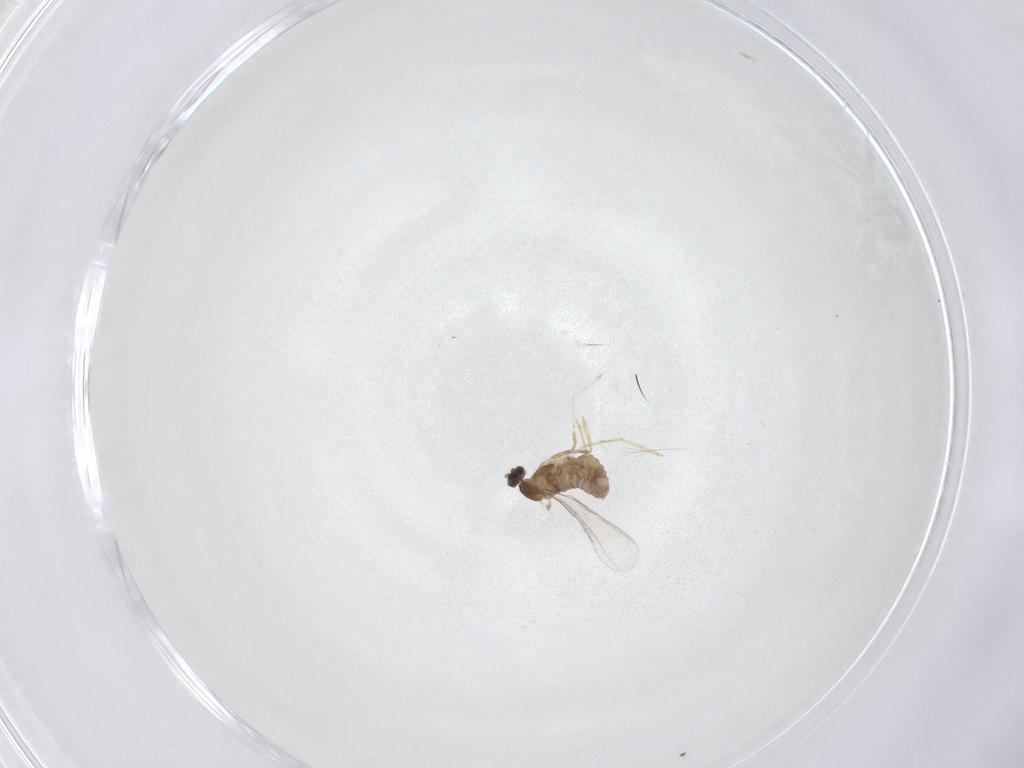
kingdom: Animalia
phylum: Arthropoda
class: Insecta
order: Diptera
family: Cecidomyiidae
